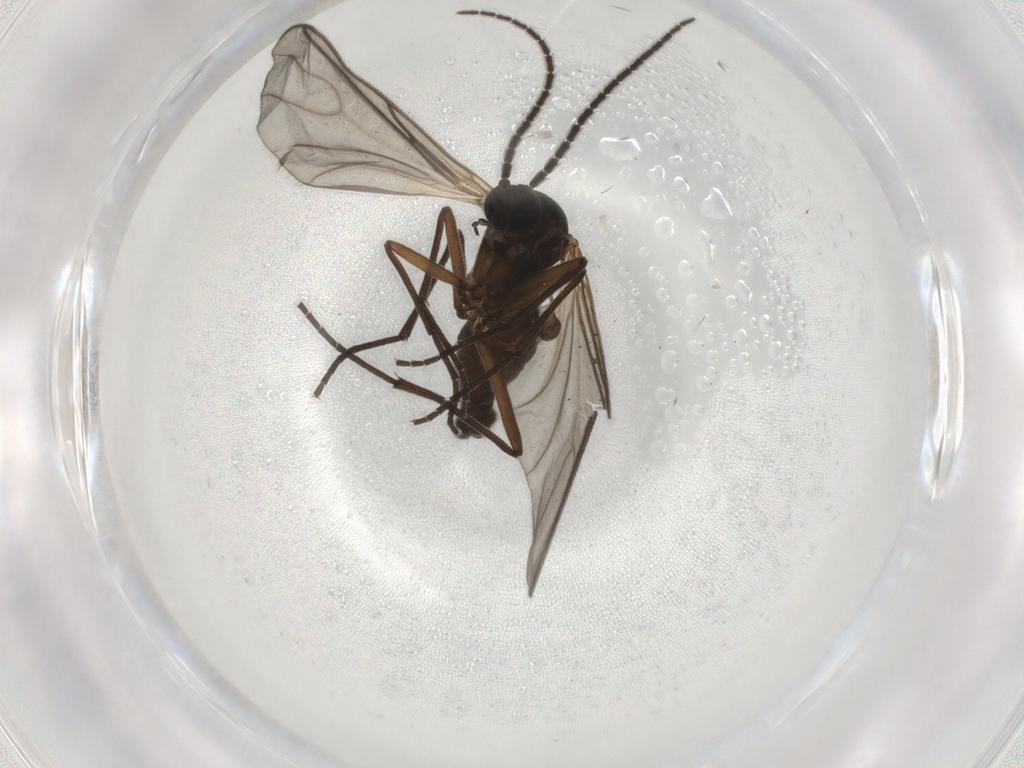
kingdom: Animalia
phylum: Arthropoda
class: Insecta
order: Diptera
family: Sciaridae
